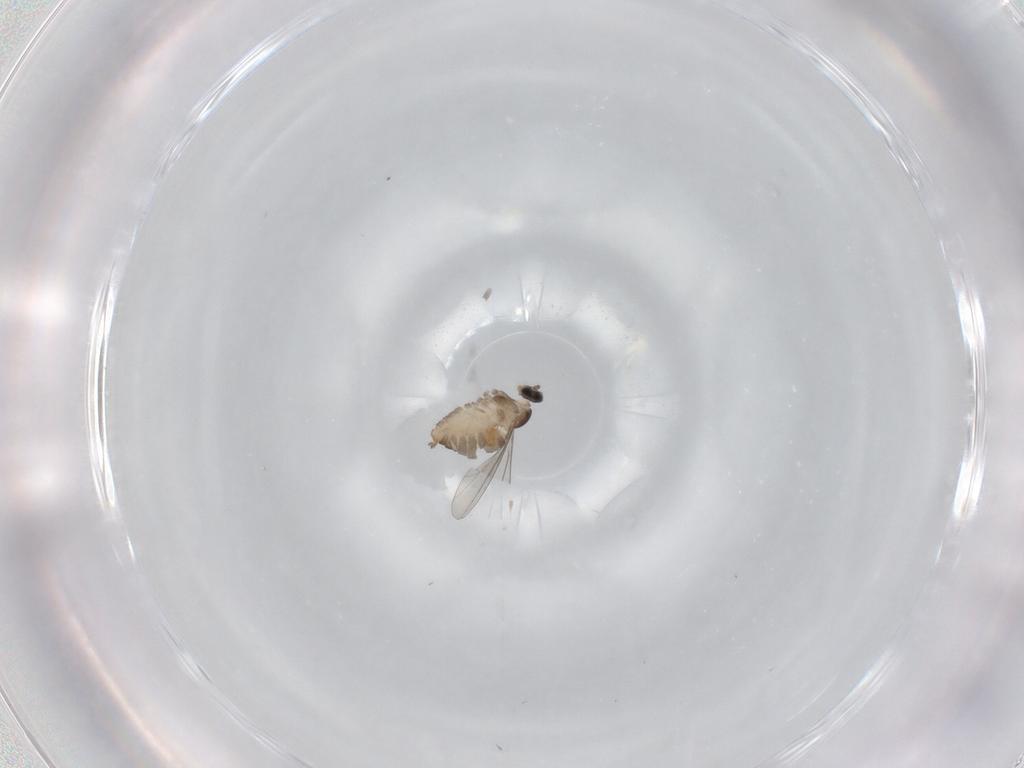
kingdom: Animalia
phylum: Arthropoda
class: Insecta
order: Diptera
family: Cecidomyiidae
